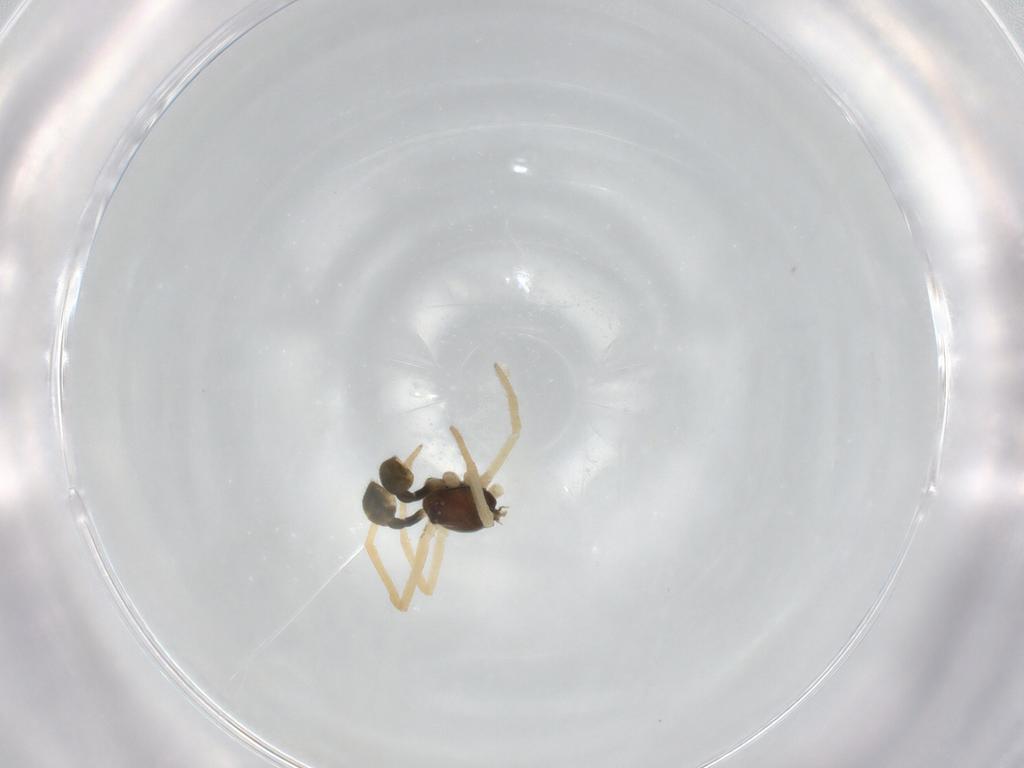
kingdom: Animalia
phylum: Arthropoda
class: Arachnida
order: Araneae
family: Theridiidae
